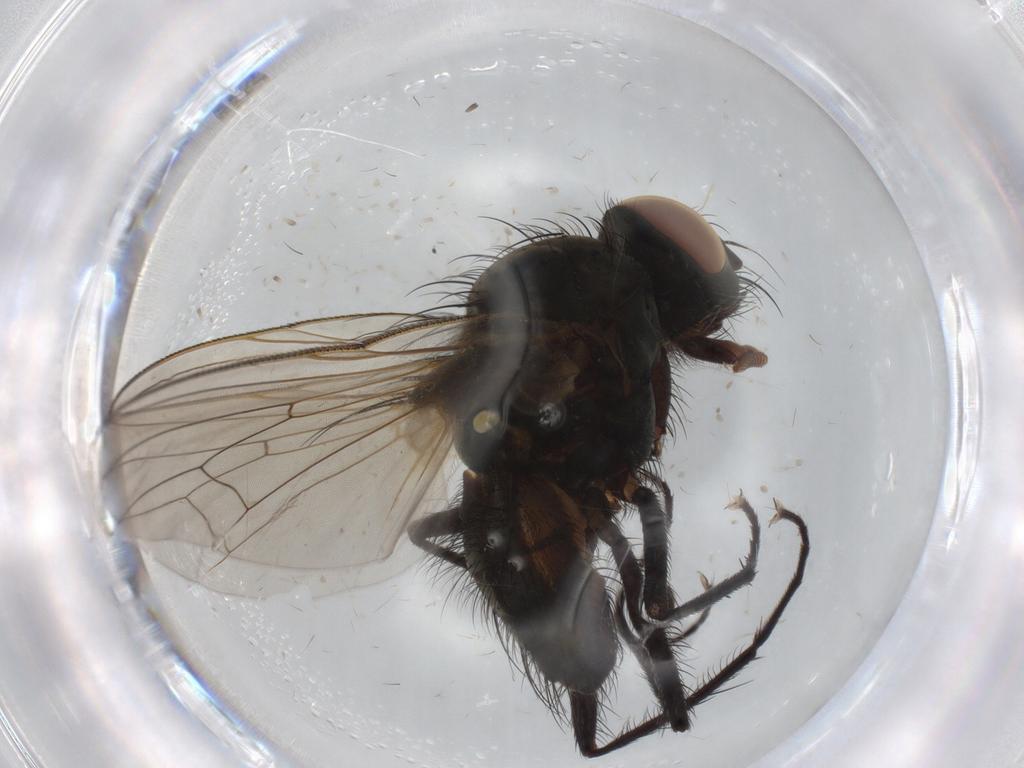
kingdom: Animalia
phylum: Arthropoda
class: Insecta
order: Diptera
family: Anthomyiidae
